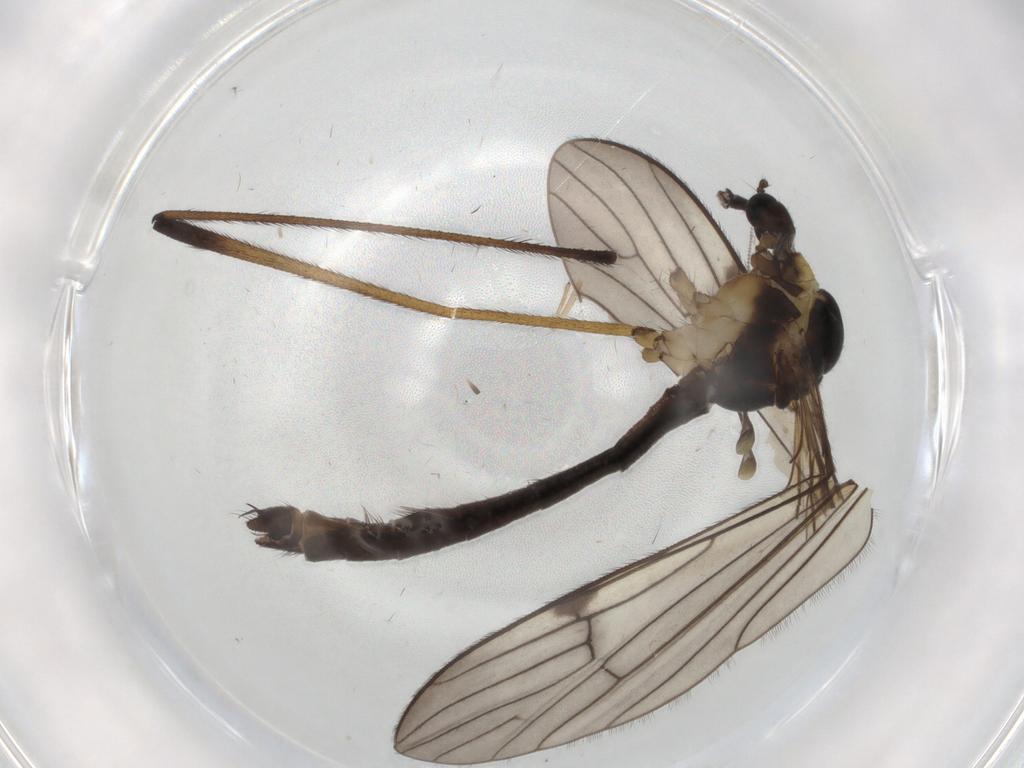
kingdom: Animalia
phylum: Arthropoda
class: Insecta
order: Diptera
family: Limoniidae
